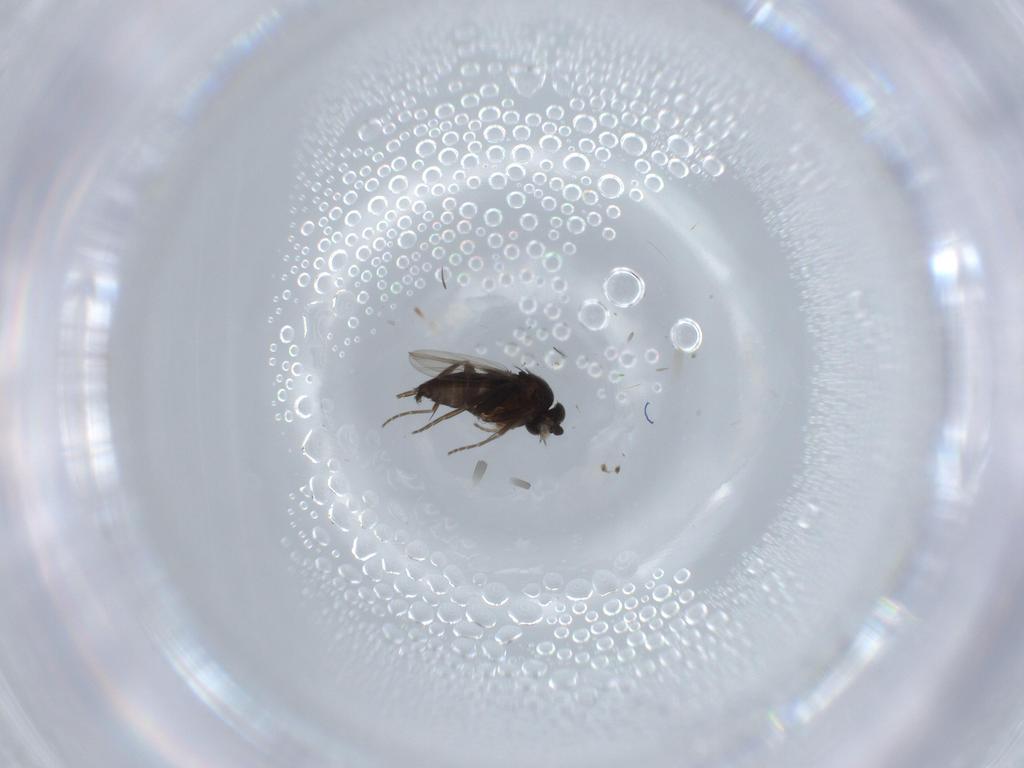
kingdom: Animalia
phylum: Arthropoda
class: Insecta
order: Diptera
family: Phoridae
